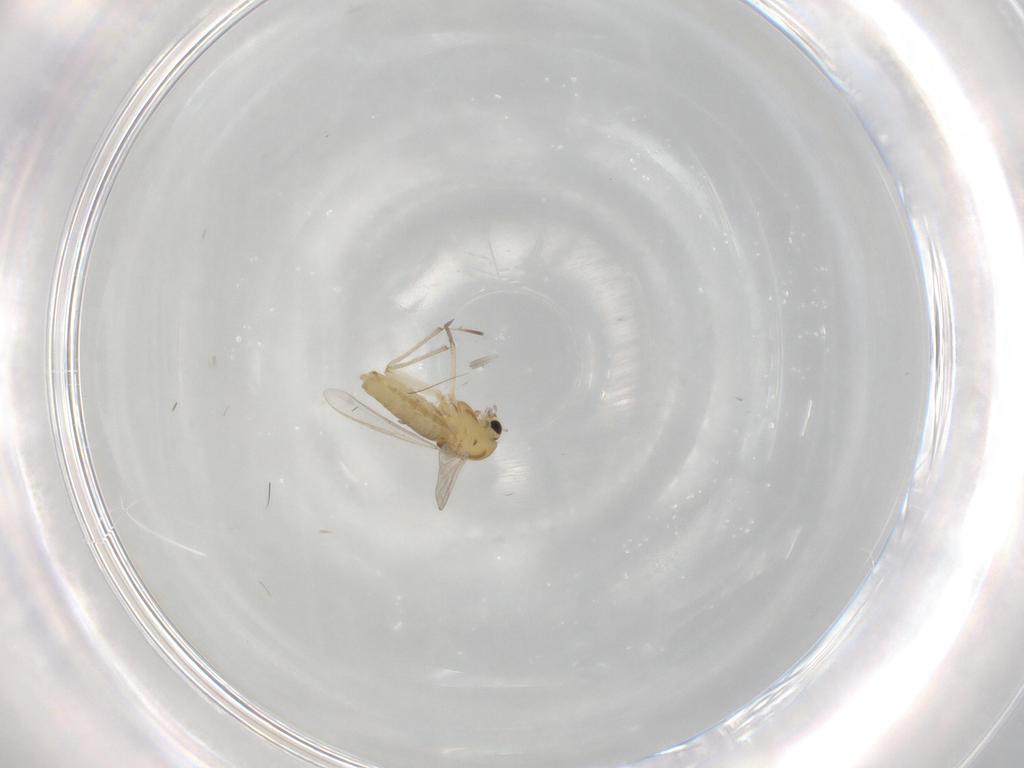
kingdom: Animalia
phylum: Arthropoda
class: Insecta
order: Diptera
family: Chironomidae
